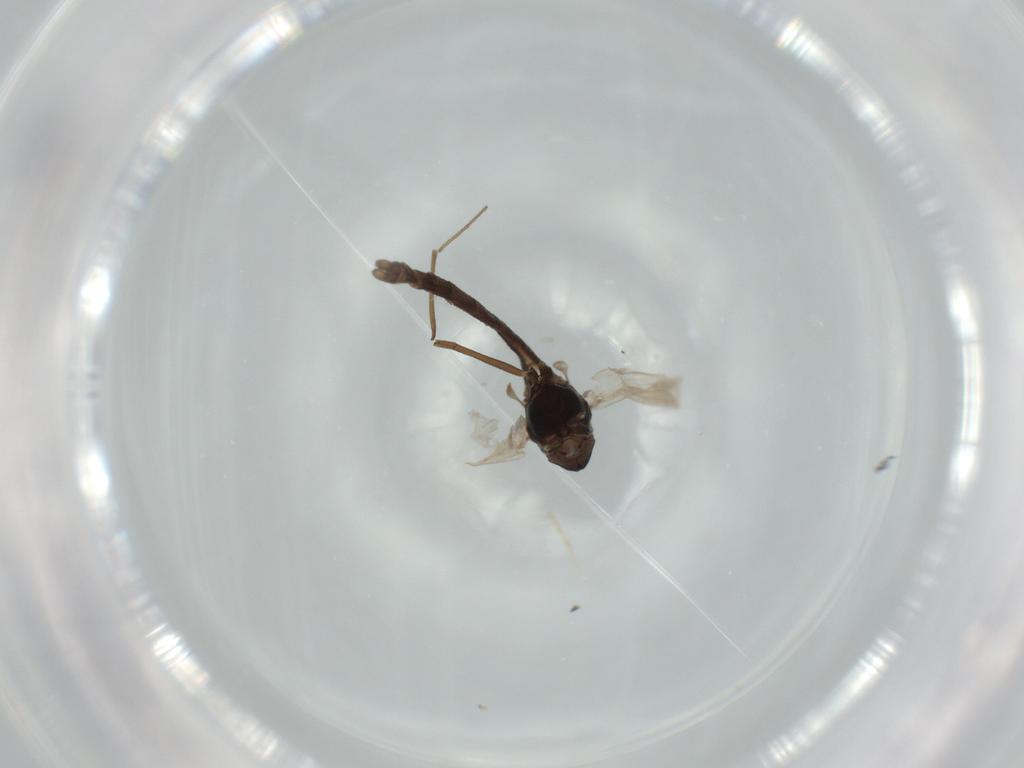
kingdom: Animalia
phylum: Arthropoda
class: Insecta
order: Diptera
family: Chironomidae
